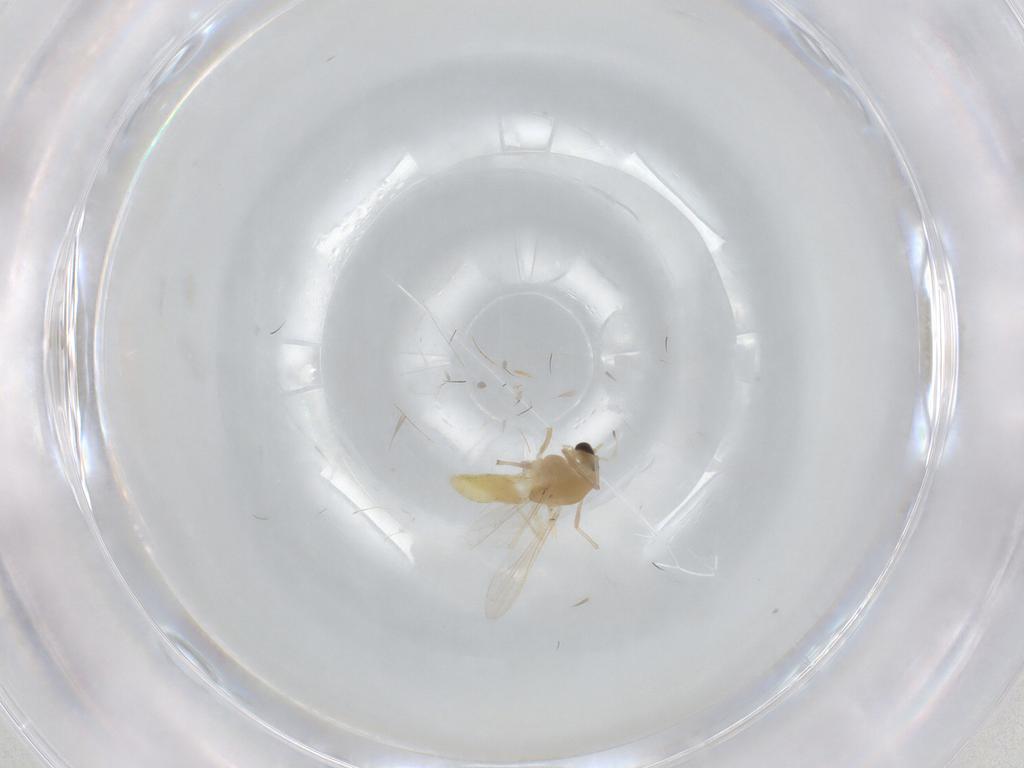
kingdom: Animalia
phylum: Arthropoda
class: Insecta
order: Diptera
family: Chironomidae
